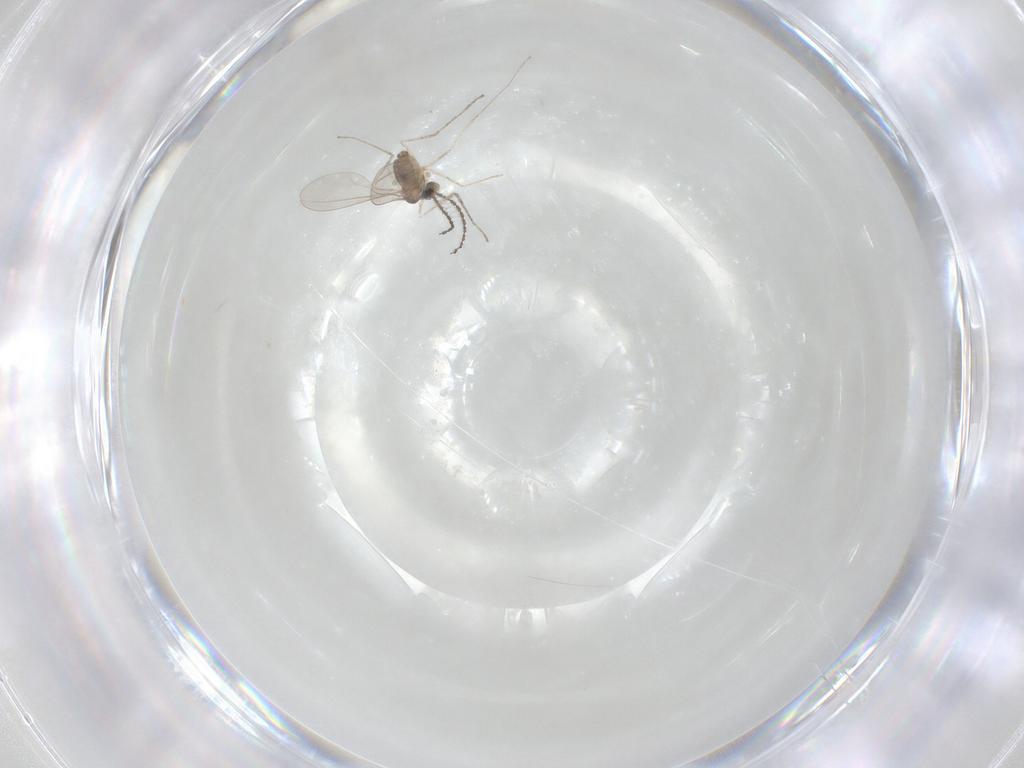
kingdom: Animalia
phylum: Arthropoda
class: Insecta
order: Diptera
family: Cecidomyiidae
